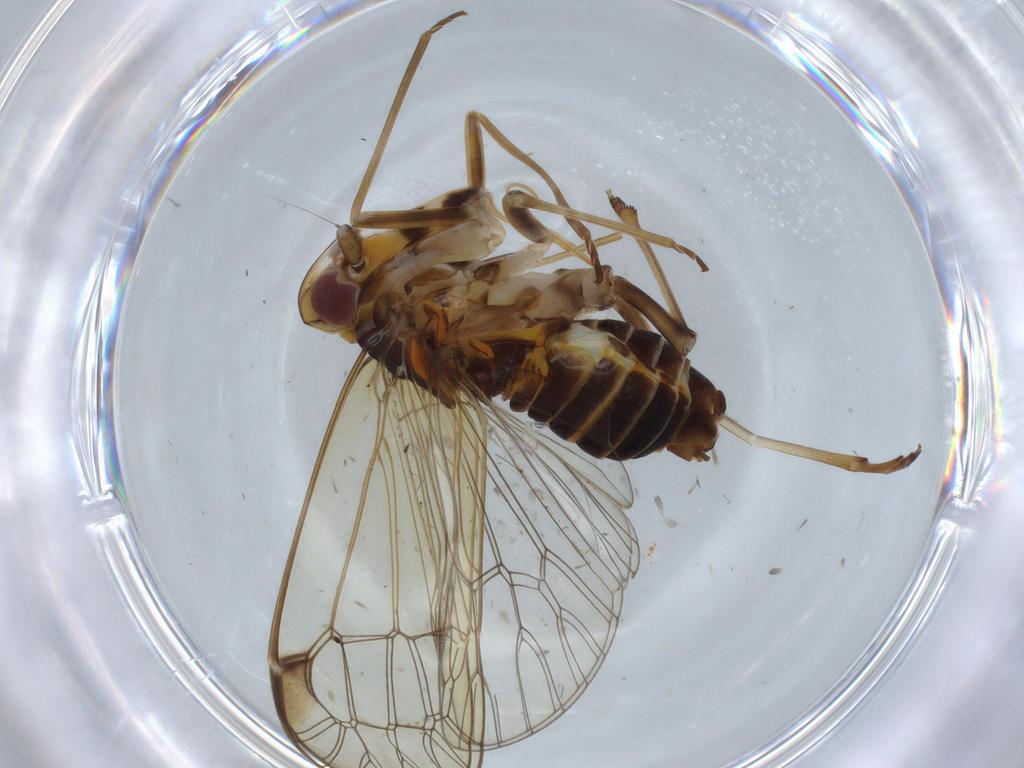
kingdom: Animalia
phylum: Arthropoda
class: Insecta
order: Hemiptera
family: Kinnaridae
